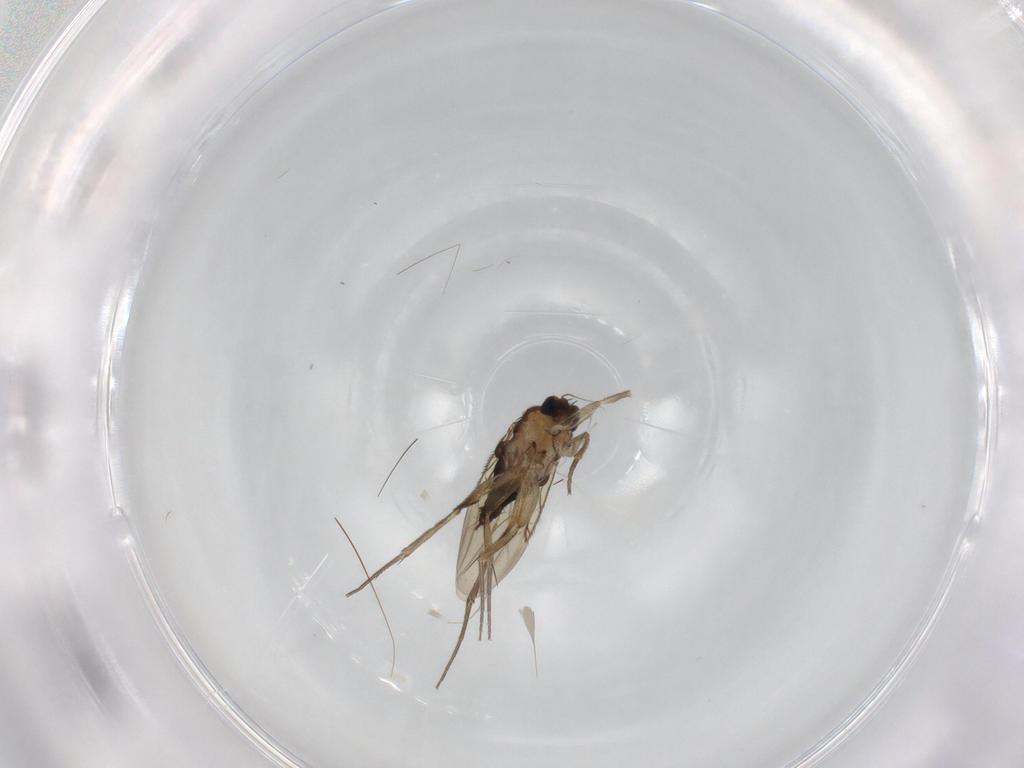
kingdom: Animalia
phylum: Arthropoda
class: Insecta
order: Diptera
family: Phoridae
